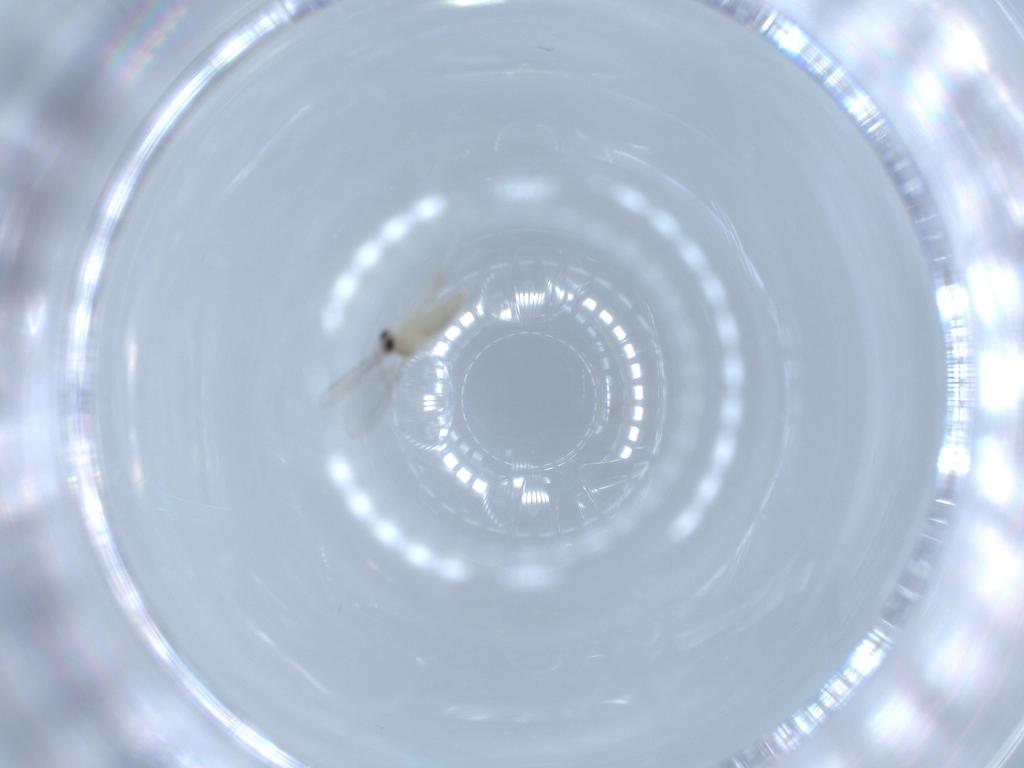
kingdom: Animalia
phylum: Arthropoda
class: Insecta
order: Diptera
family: Cecidomyiidae
